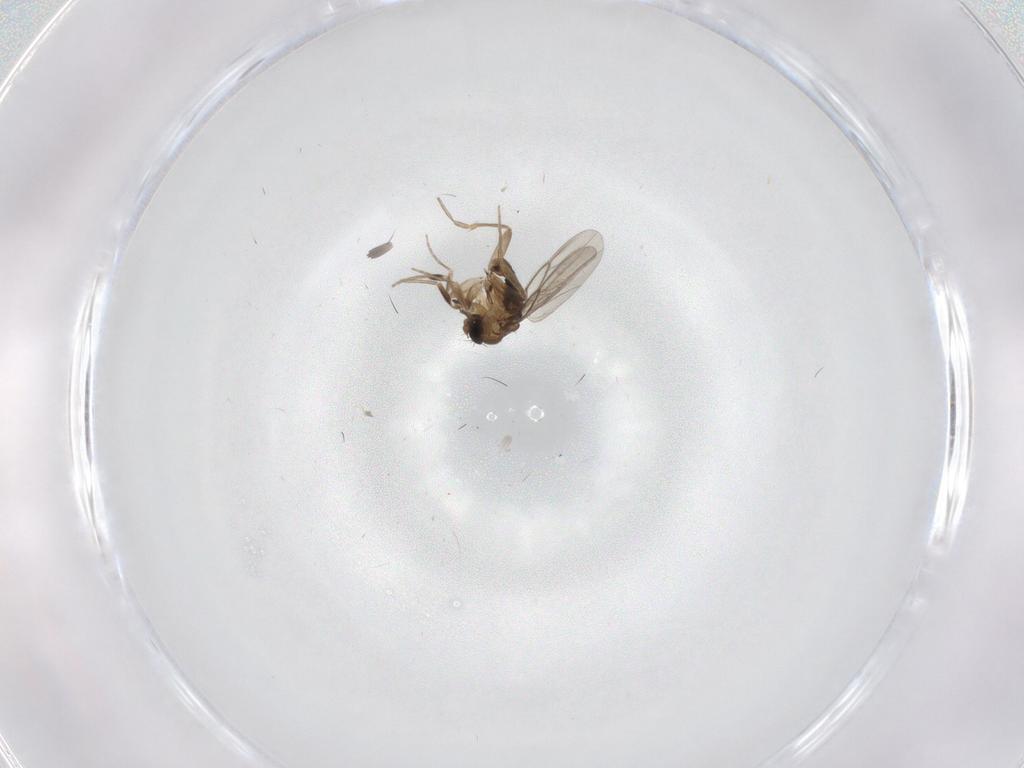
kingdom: Animalia
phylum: Arthropoda
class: Insecta
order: Diptera
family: Phoridae
